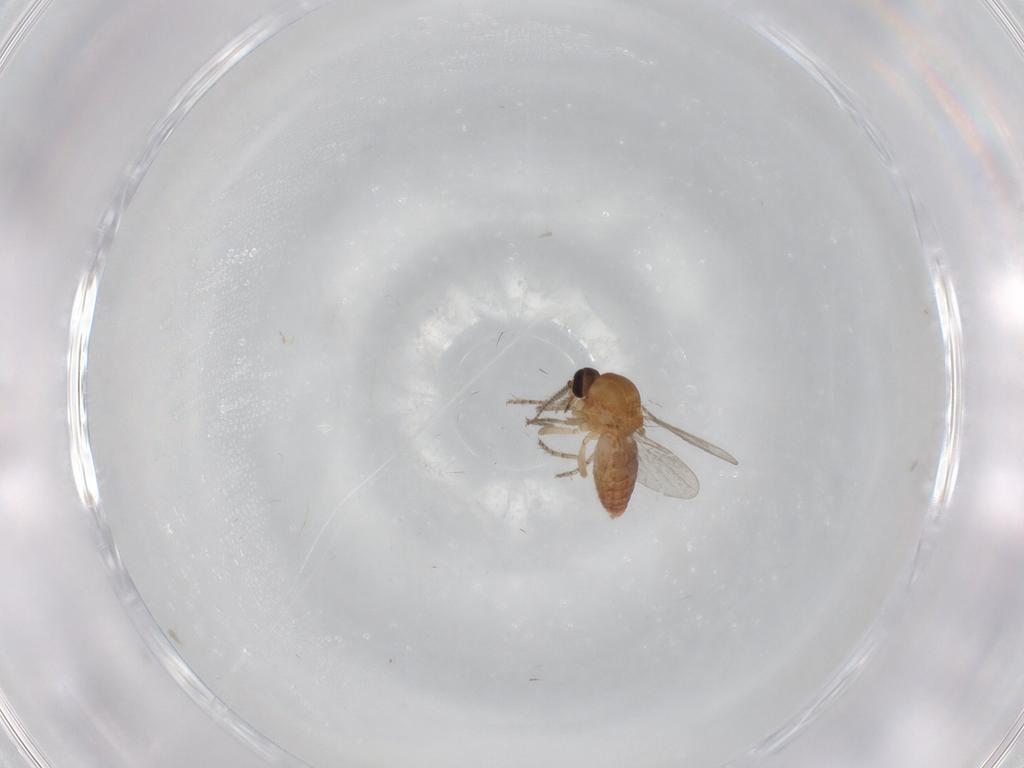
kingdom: Animalia
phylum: Arthropoda
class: Insecta
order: Diptera
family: Ceratopogonidae
